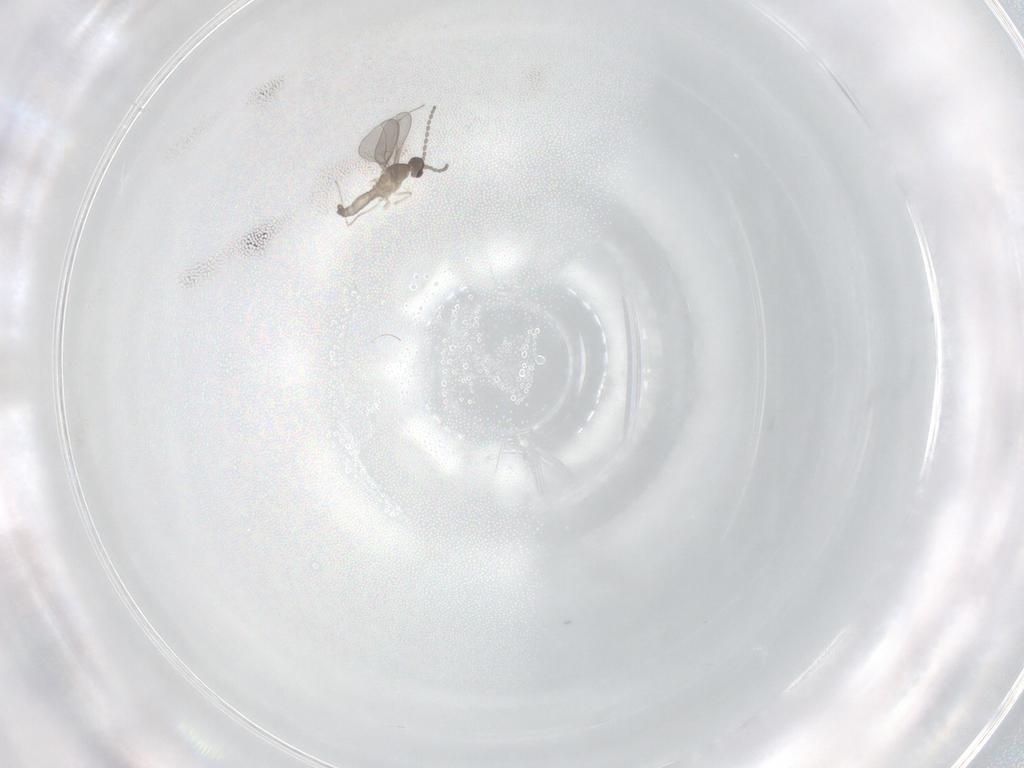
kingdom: Animalia
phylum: Arthropoda
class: Insecta
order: Diptera
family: Cecidomyiidae
